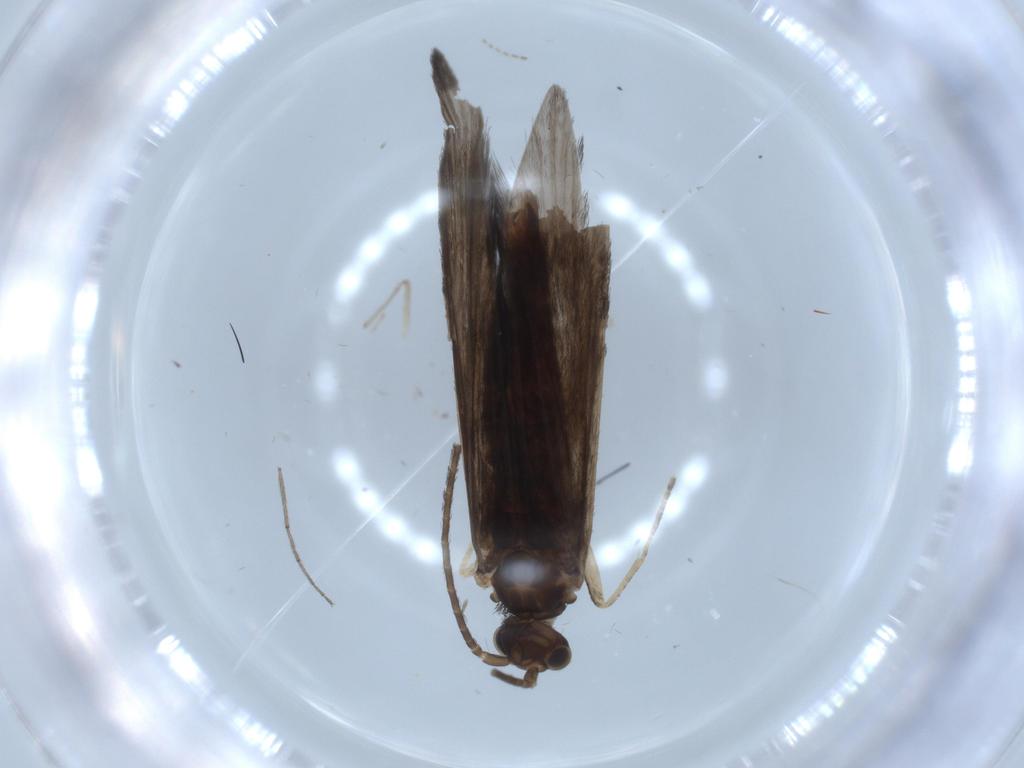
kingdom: Animalia
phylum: Arthropoda
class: Insecta
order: Trichoptera
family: Xiphocentronidae
